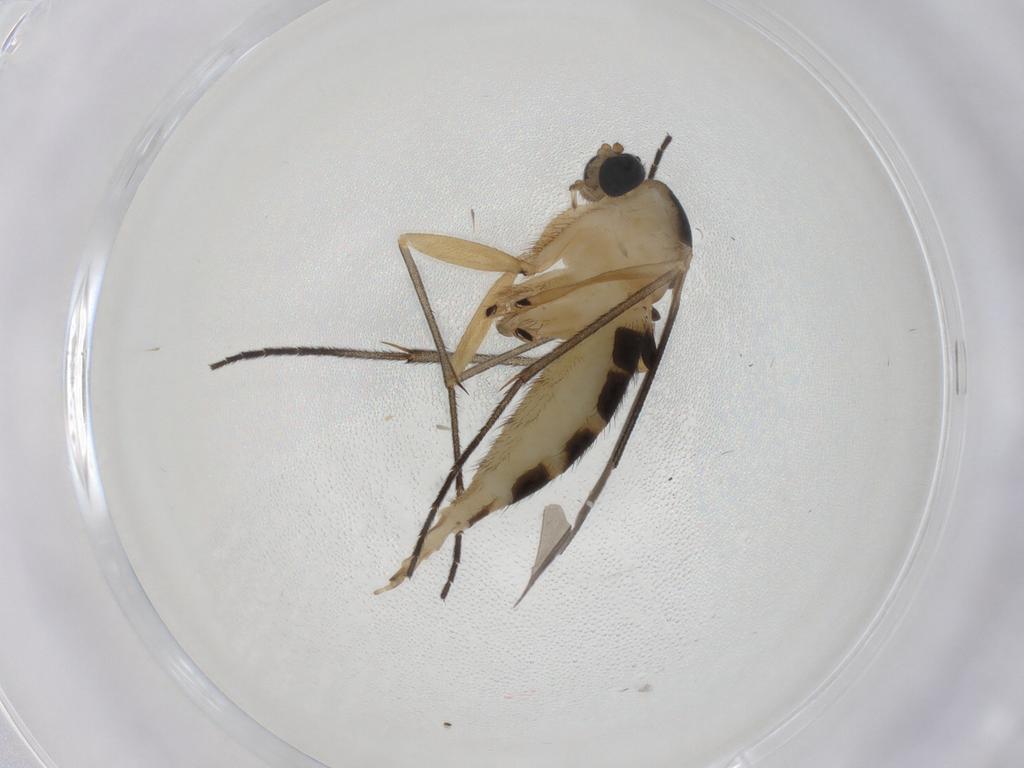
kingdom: Animalia
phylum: Arthropoda
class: Insecta
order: Diptera
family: Sciaridae
